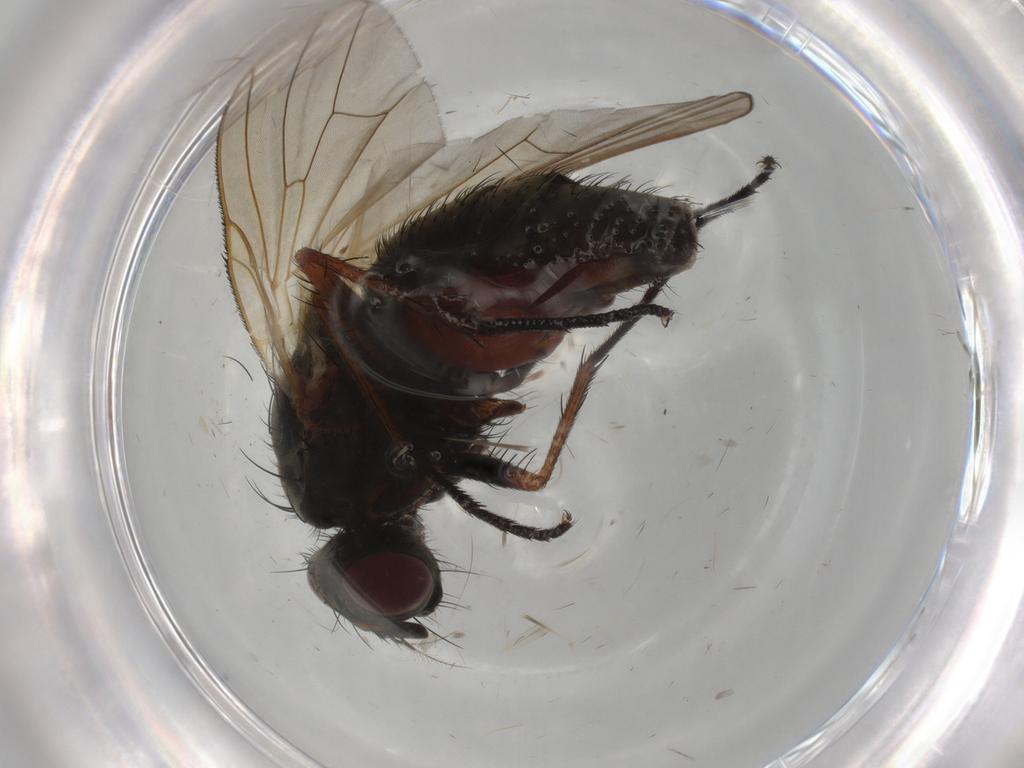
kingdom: Animalia
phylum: Arthropoda
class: Insecta
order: Diptera
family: Anthomyiidae
